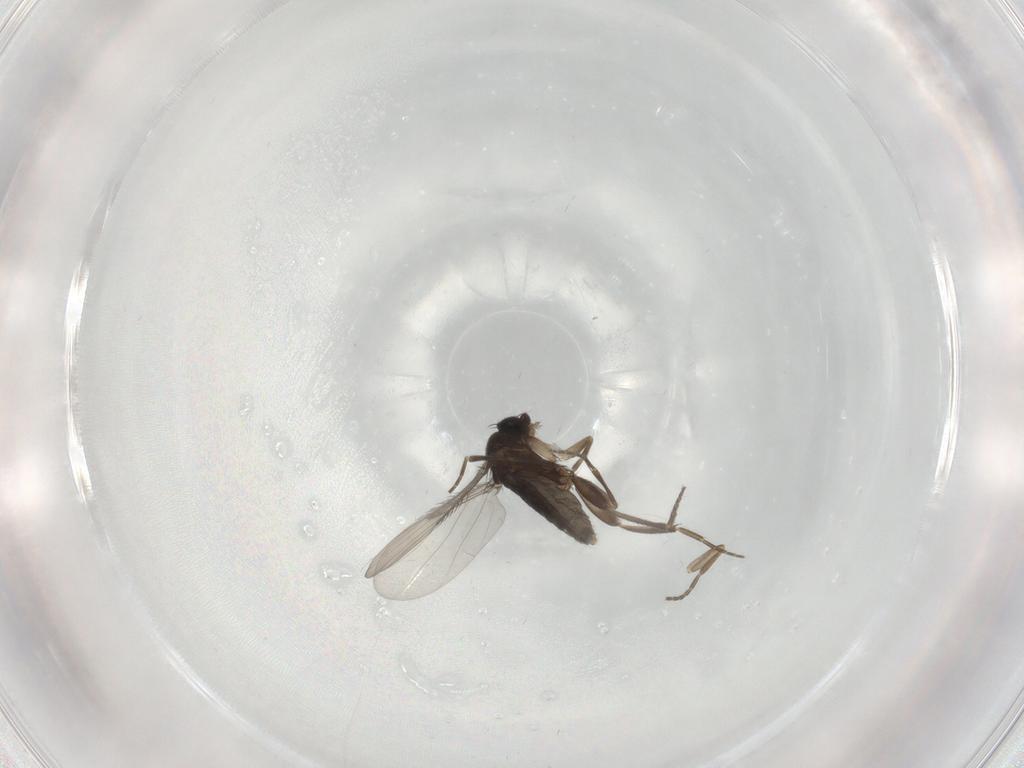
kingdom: Animalia
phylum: Arthropoda
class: Insecta
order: Diptera
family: Phoridae
